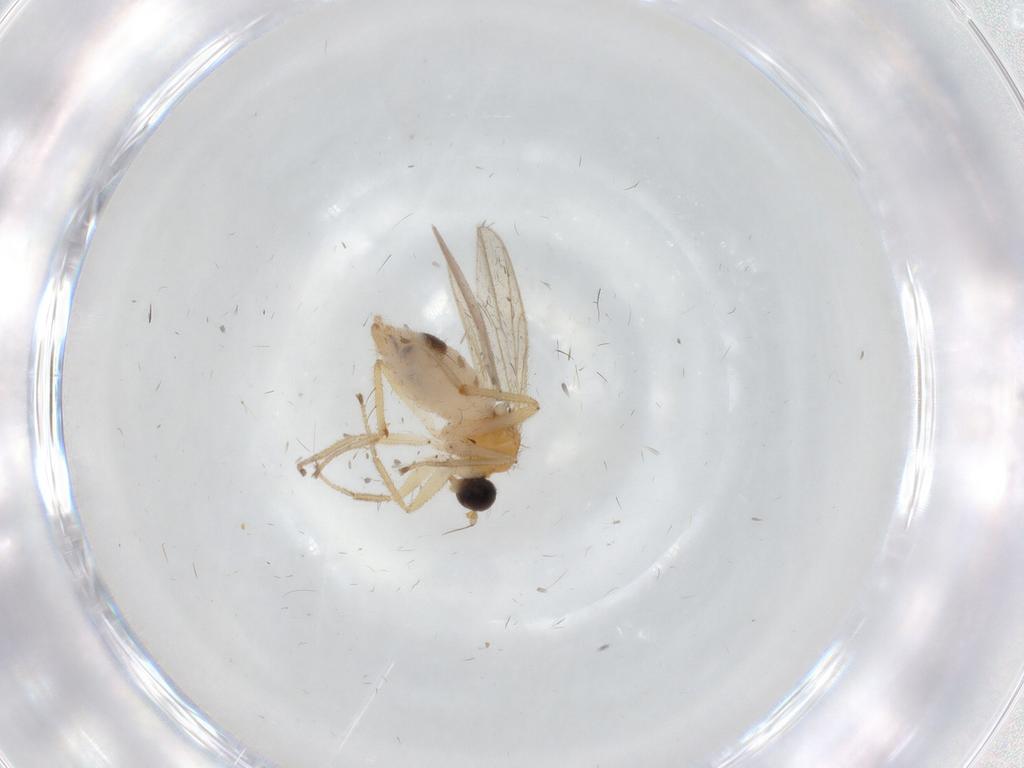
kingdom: Animalia
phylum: Arthropoda
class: Insecta
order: Diptera
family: Hybotidae
